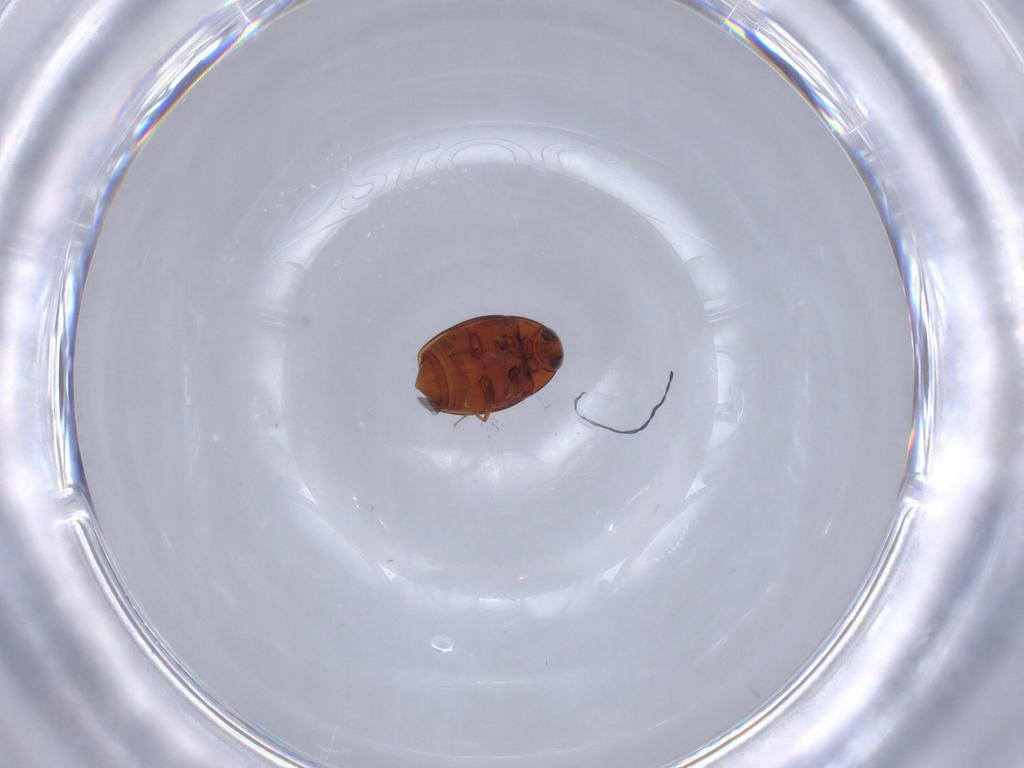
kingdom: Animalia
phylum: Arthropoda
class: Insecta
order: Coleoptera
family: Staphylinidae
